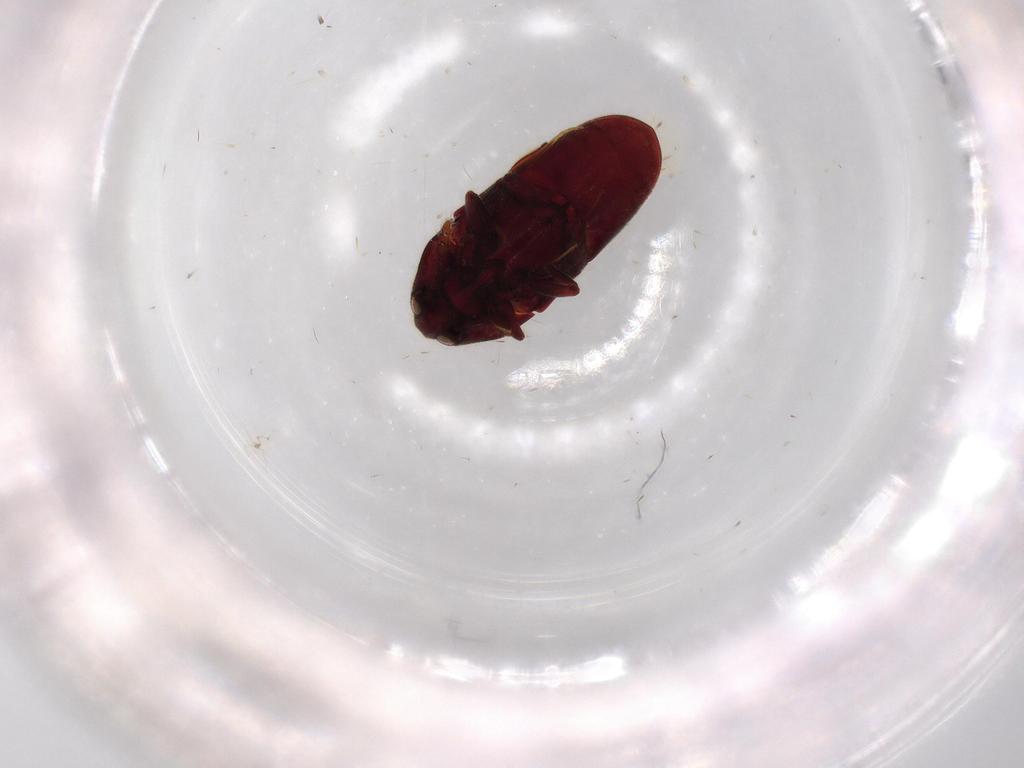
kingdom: Animalia
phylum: Arthropoda
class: Insecta
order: Coleoptera
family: Throscidae
